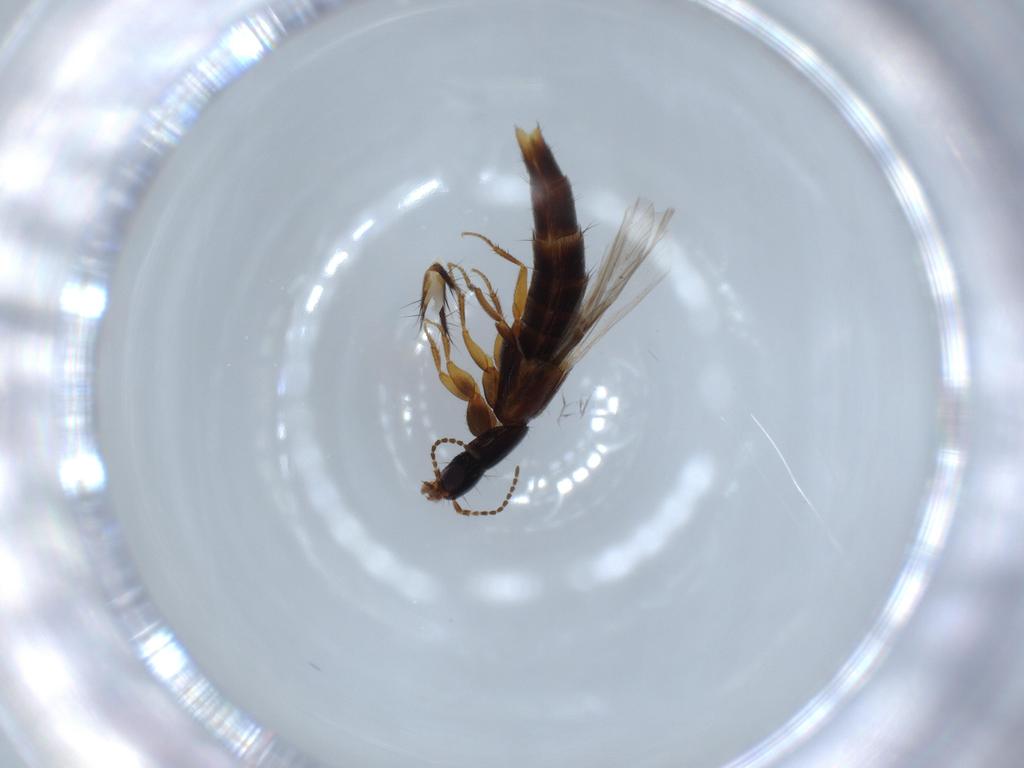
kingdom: Animalia
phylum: Arthropoda
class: Insecta
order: Coleoptera
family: Staphylinidae
